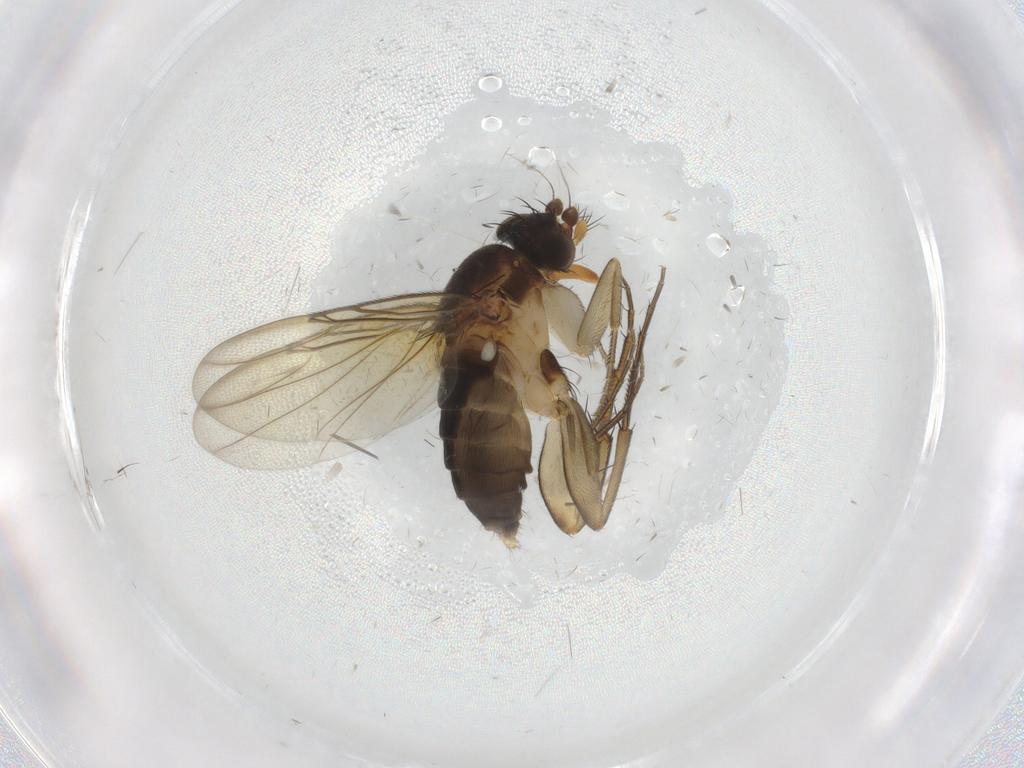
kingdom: Animalia
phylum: Arthropoda
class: Insecta
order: Diptera
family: Phoridae
